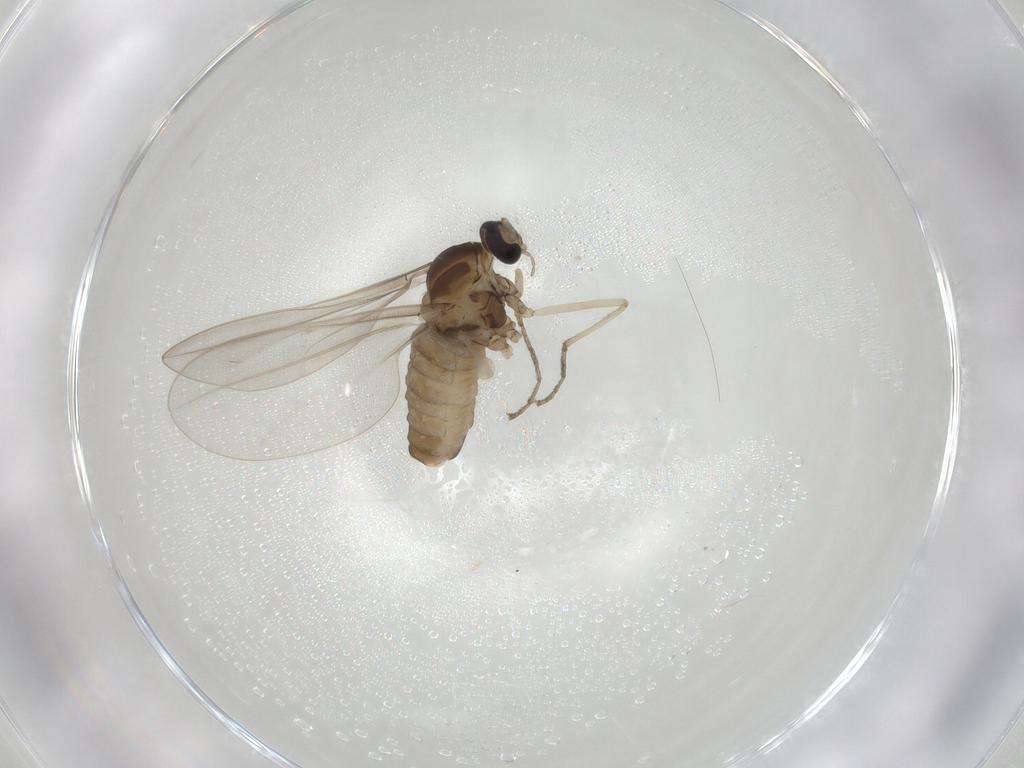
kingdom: Animalia
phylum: Arthropoda
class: Insecta
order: Diptera
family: Cecidomyiidae
